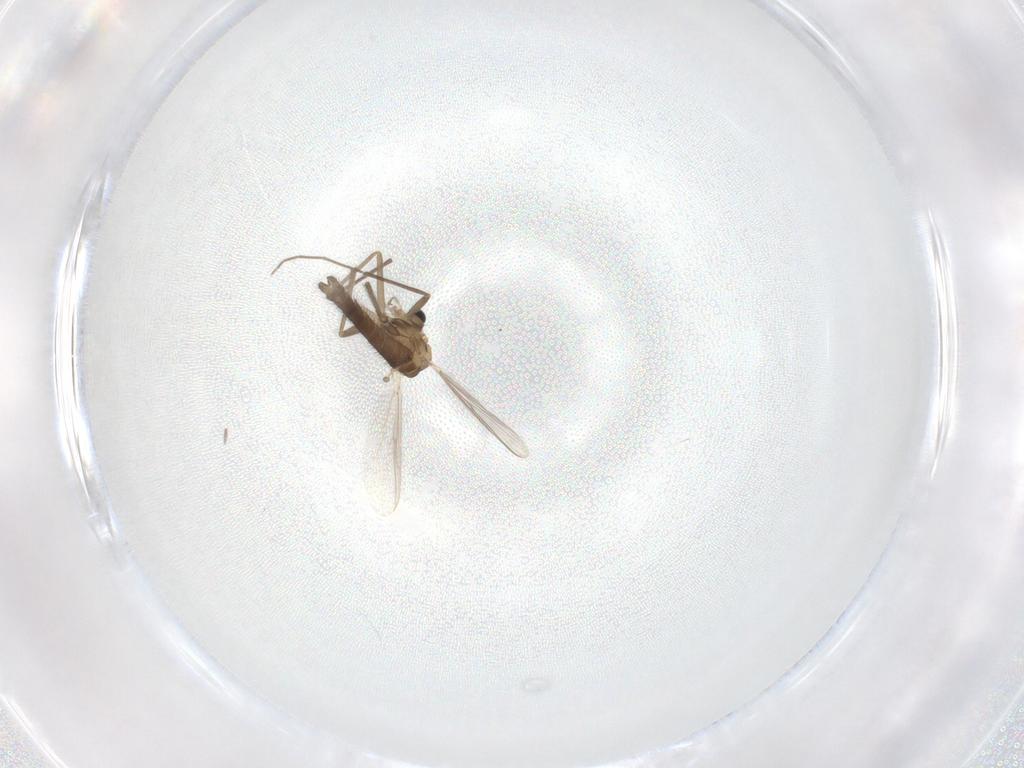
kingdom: Animalia
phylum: Arthropoda
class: Insecta
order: Diptera
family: Chironomidae
